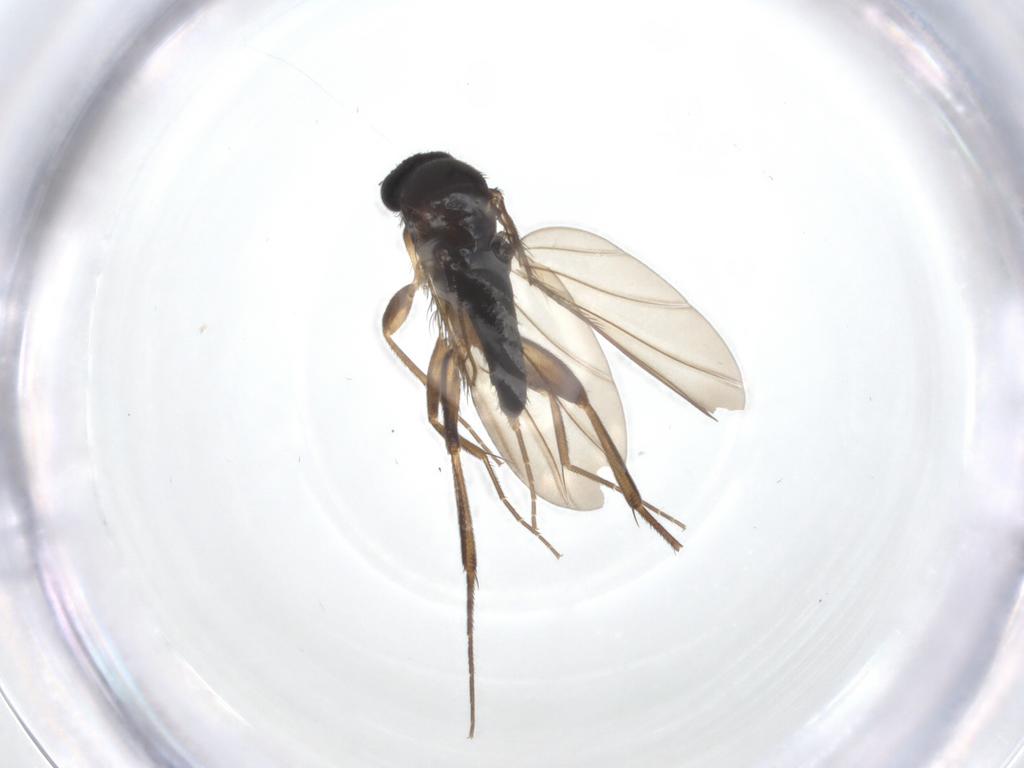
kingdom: Animalia
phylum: Arthropoda
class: Insecta
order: Diptera
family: Phoridae
